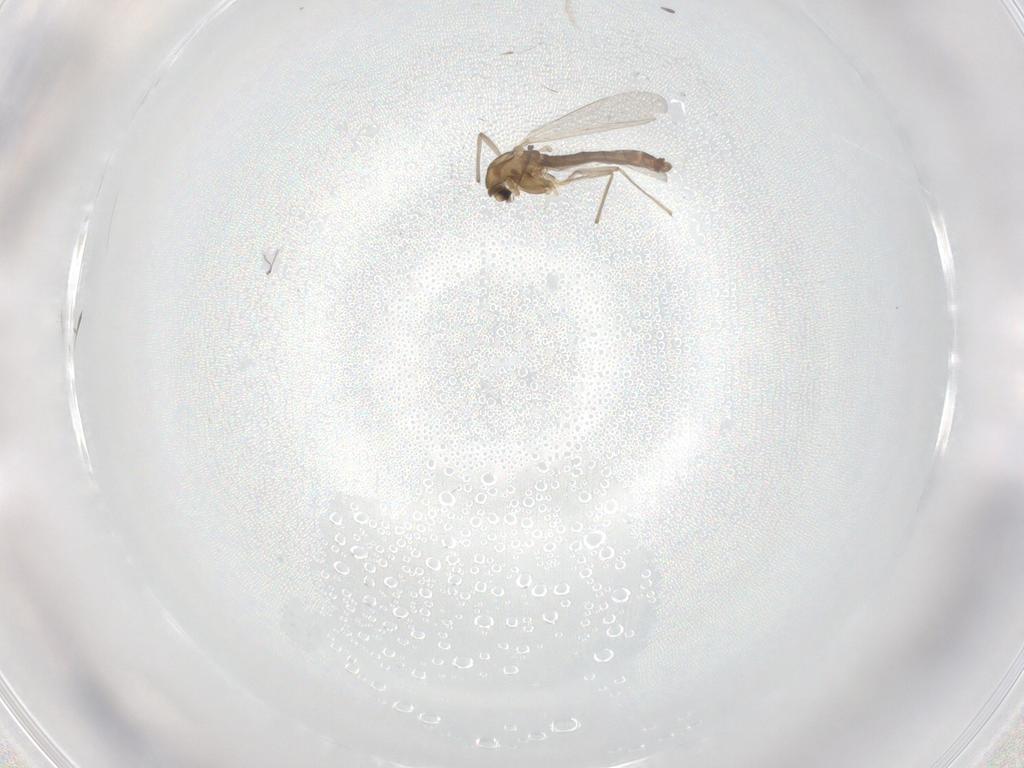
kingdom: Animalia
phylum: Arthropoda
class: Insecta
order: Diptera
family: Chironomidae
